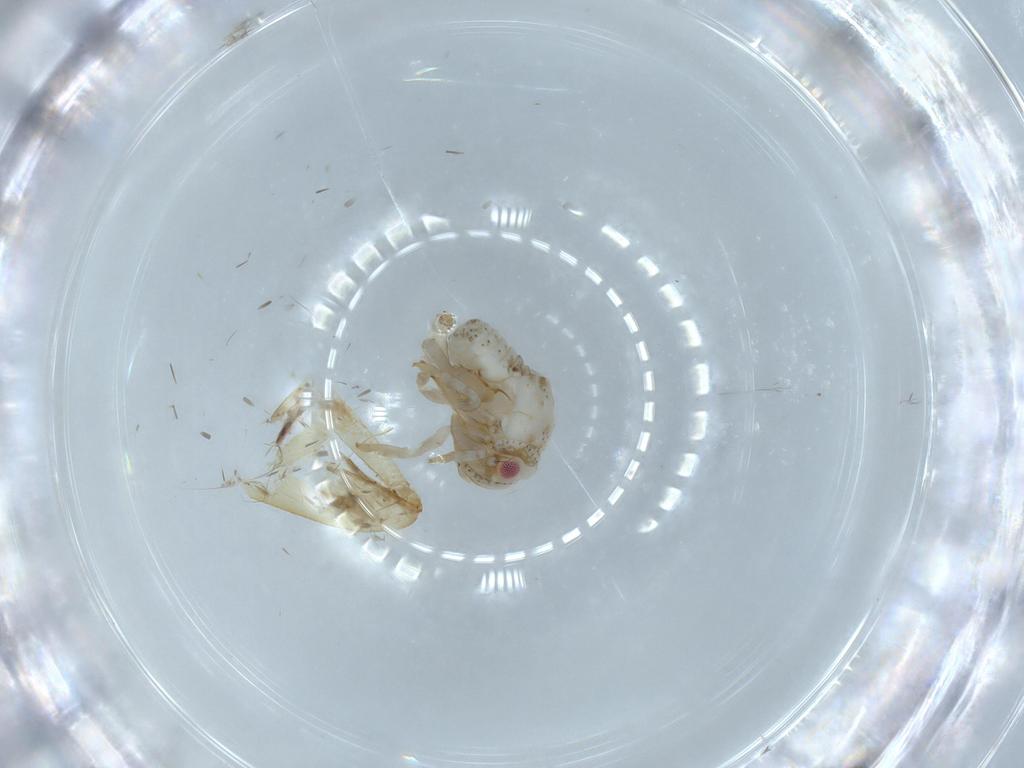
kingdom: Animalia
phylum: Arthropoda
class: Insecta
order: Hemiptera
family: Acanaloniidae
